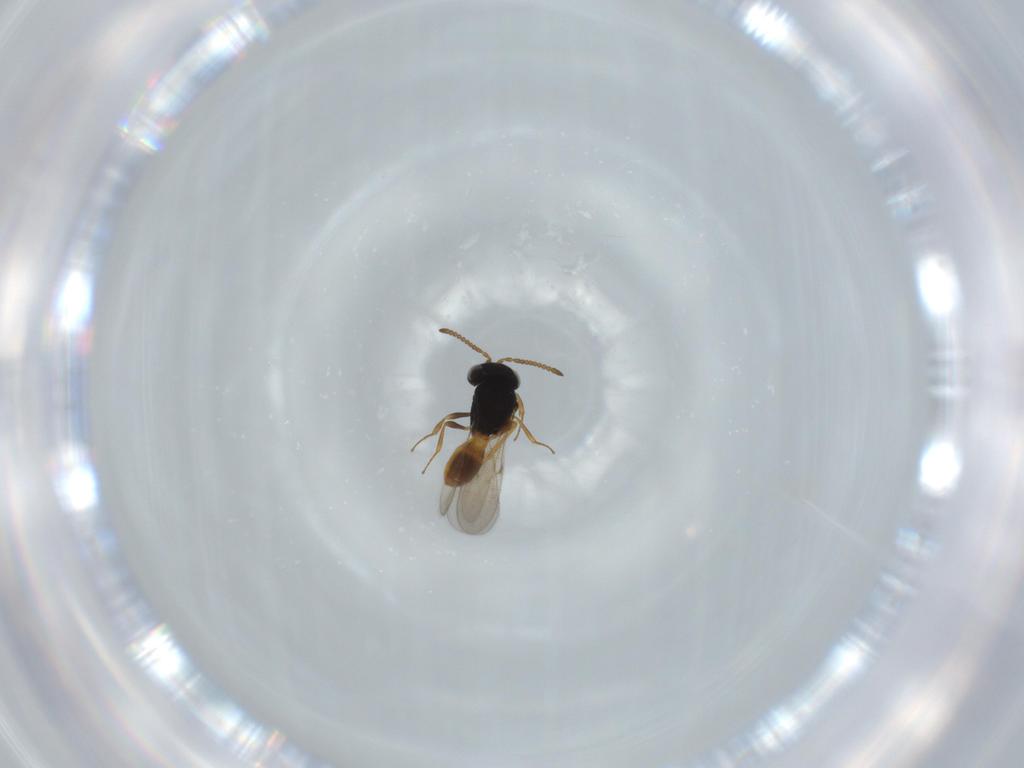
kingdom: Animalia
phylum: Arthropoda
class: Insecta
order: Hymenoptera
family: Scelionidae
